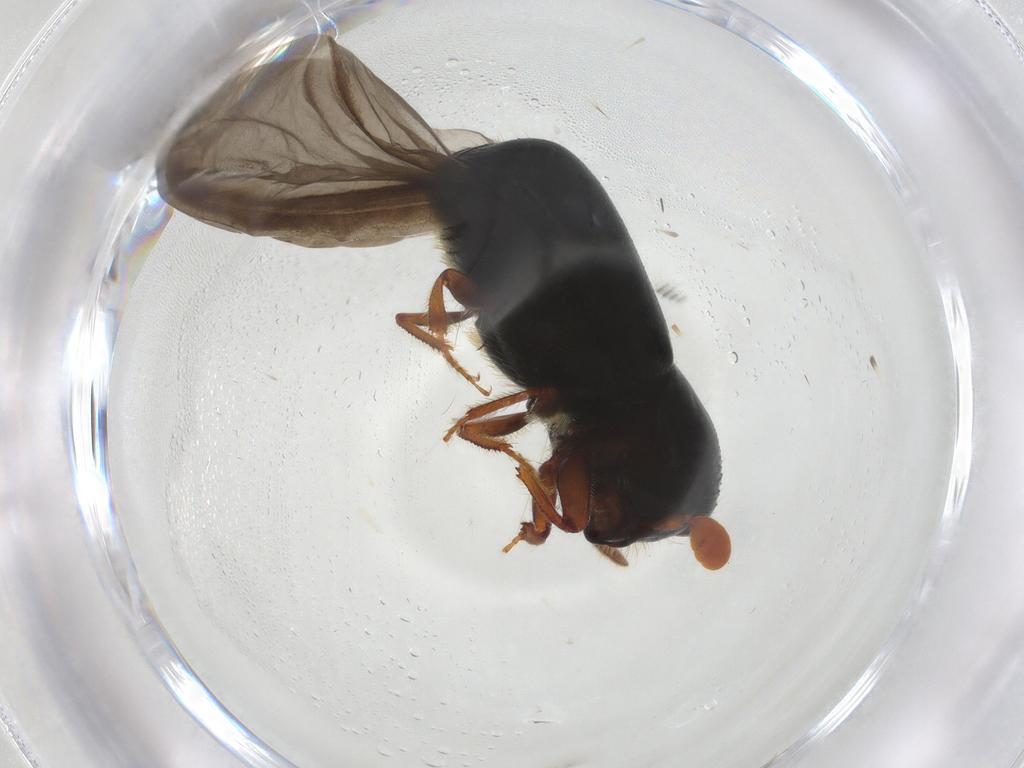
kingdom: Animalia
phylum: Arthropoda
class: Insecta
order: Coleoptera
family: Curculionidae
